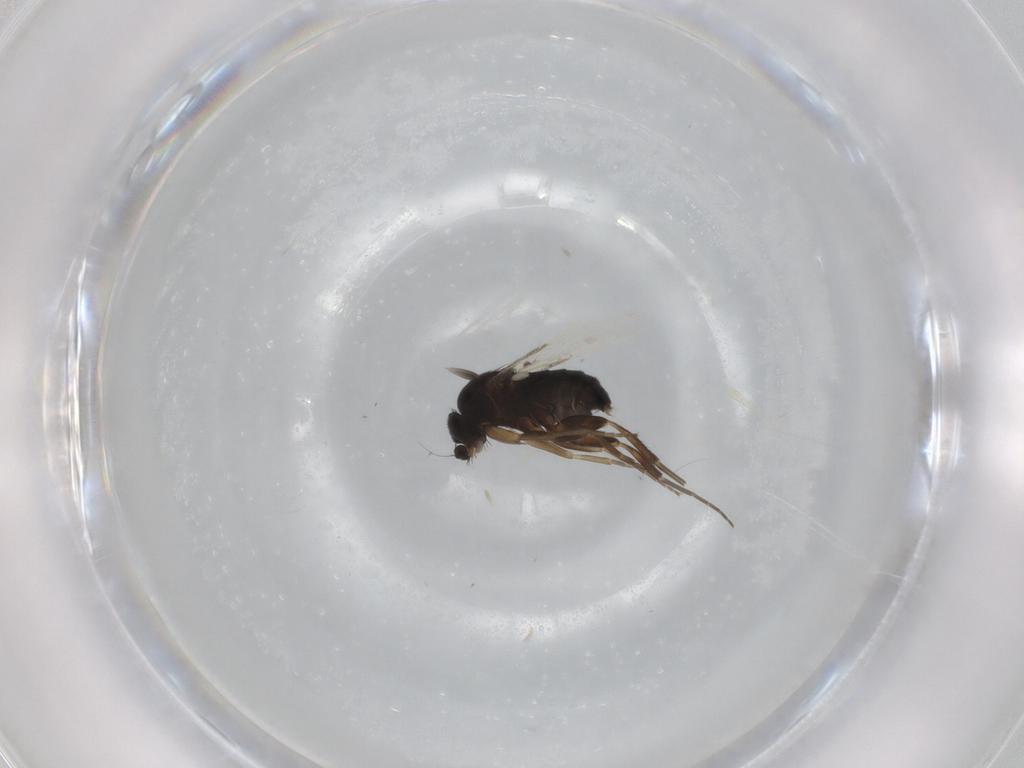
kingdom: Animalia
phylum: Arthropoda
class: Insecta
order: Diptera
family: Phoridae
